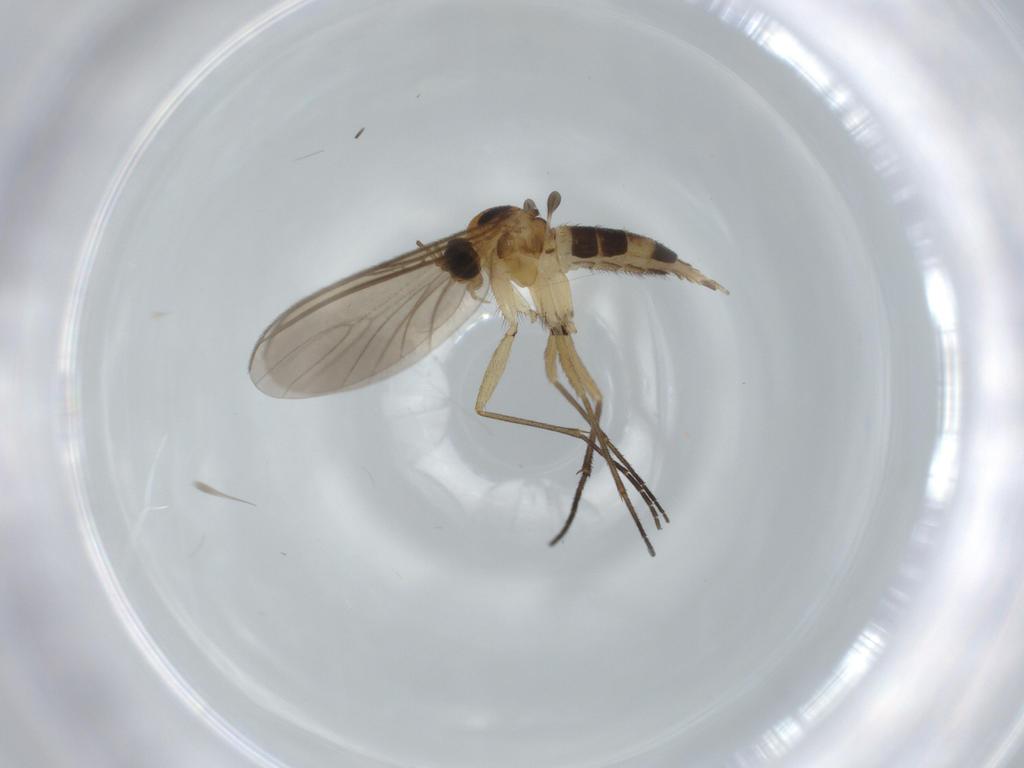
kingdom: Animalia
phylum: Arthropoda
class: Insecta
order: Diptera
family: Sciaridae
